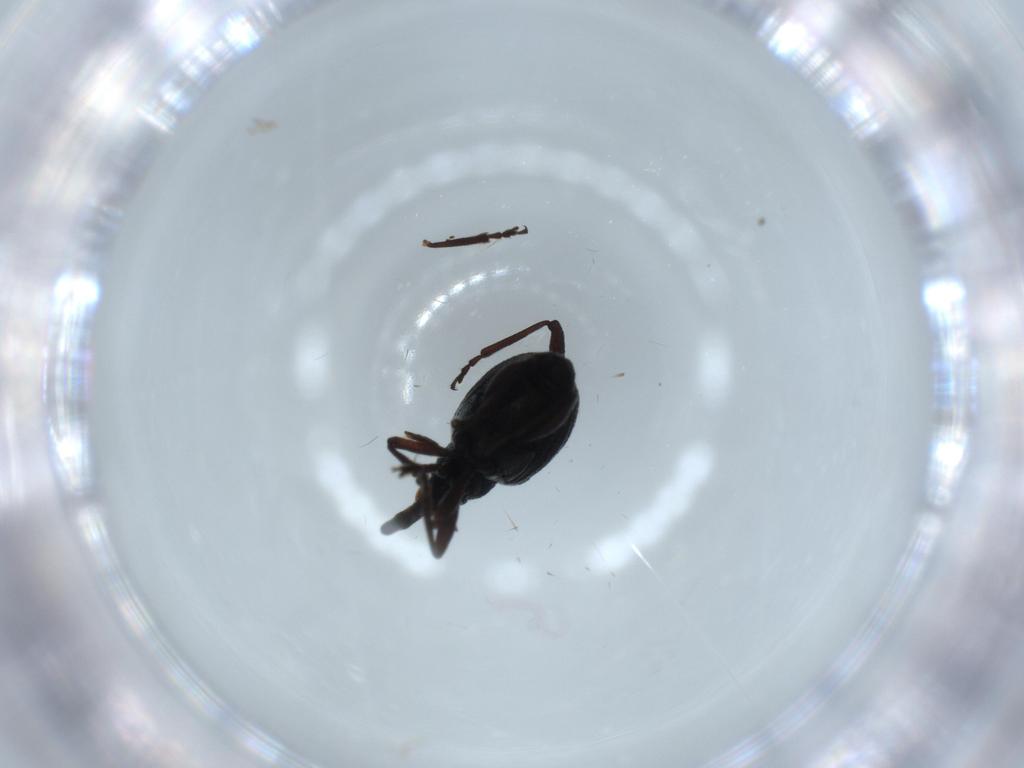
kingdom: Animalia
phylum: Arthropoda
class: Insecta
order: Coleoptera
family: Brentidae
